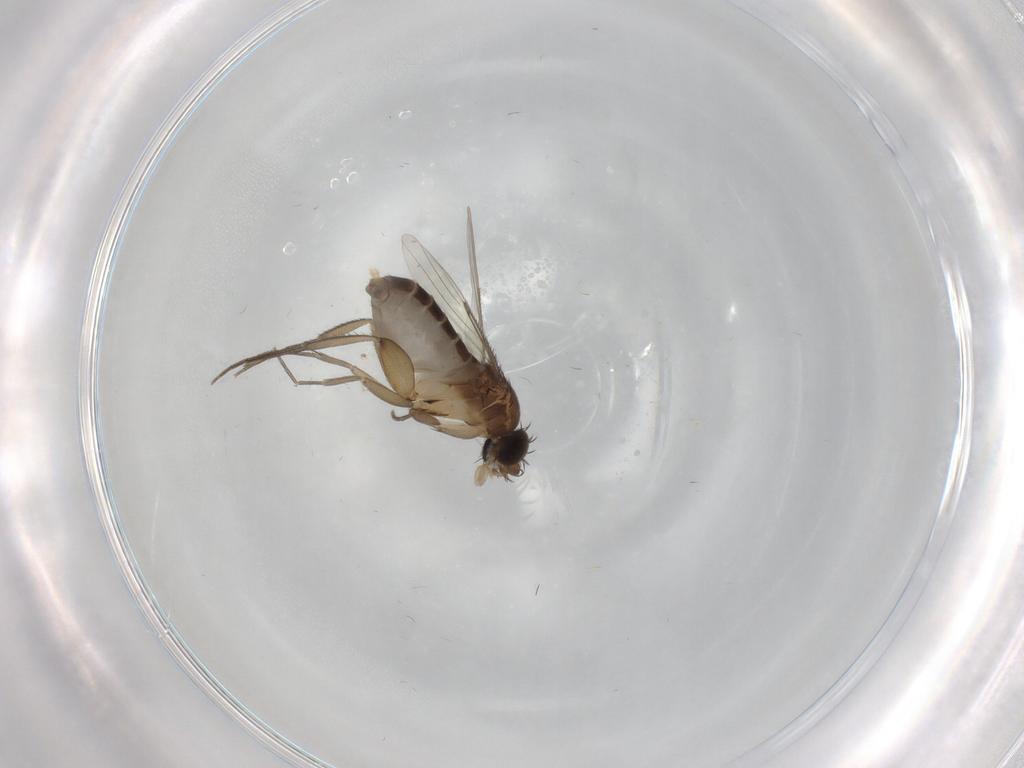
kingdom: Animalia
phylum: Arthropoda
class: Insecta
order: Diptera
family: Phoridae
